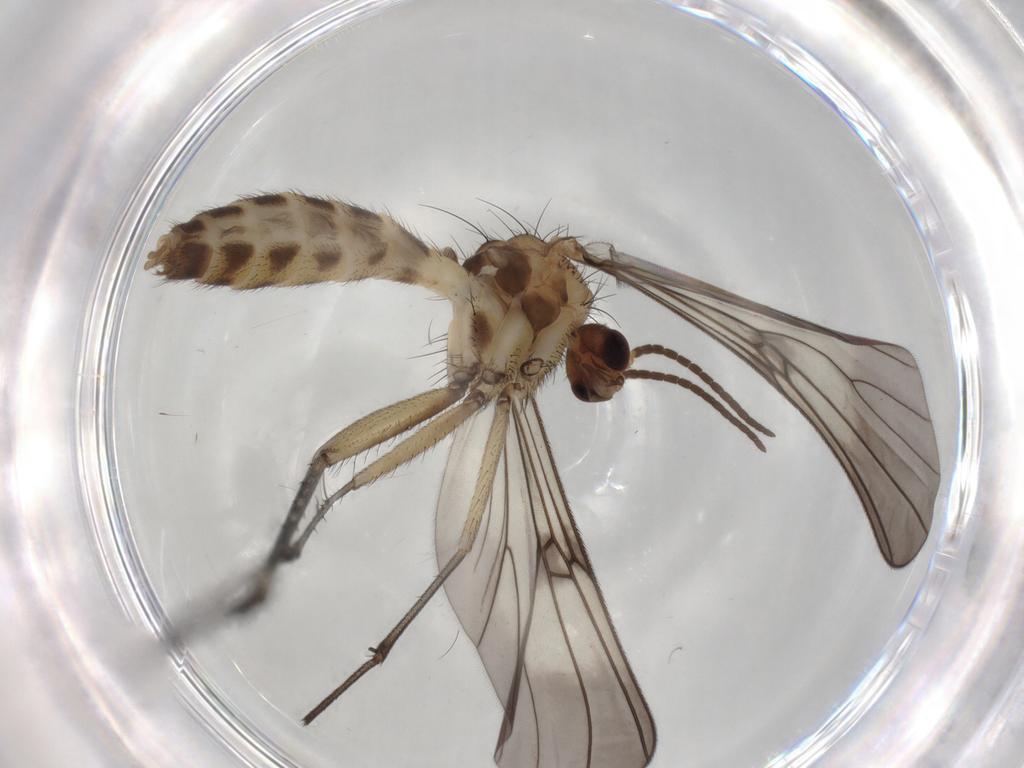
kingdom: Animalia
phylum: Arthropoda
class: Insecta
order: Diptera
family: Mycetophilidae
